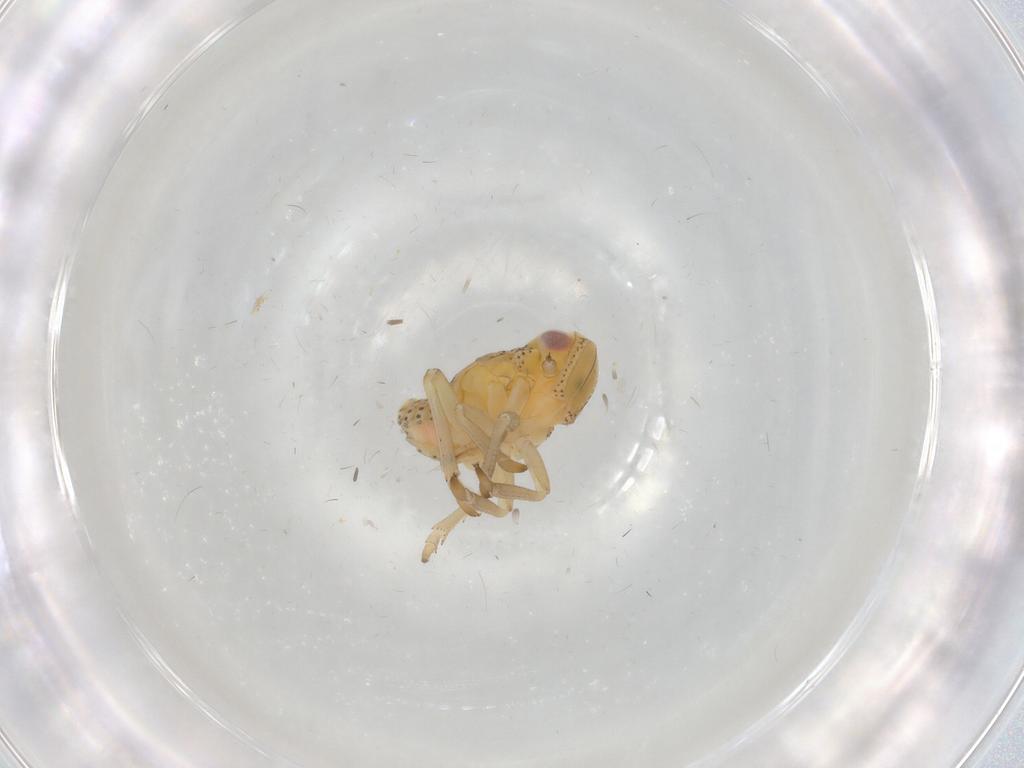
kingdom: Animalia
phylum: Arthropoda
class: Insecta
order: Hemiptera
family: Tropiduchidae
